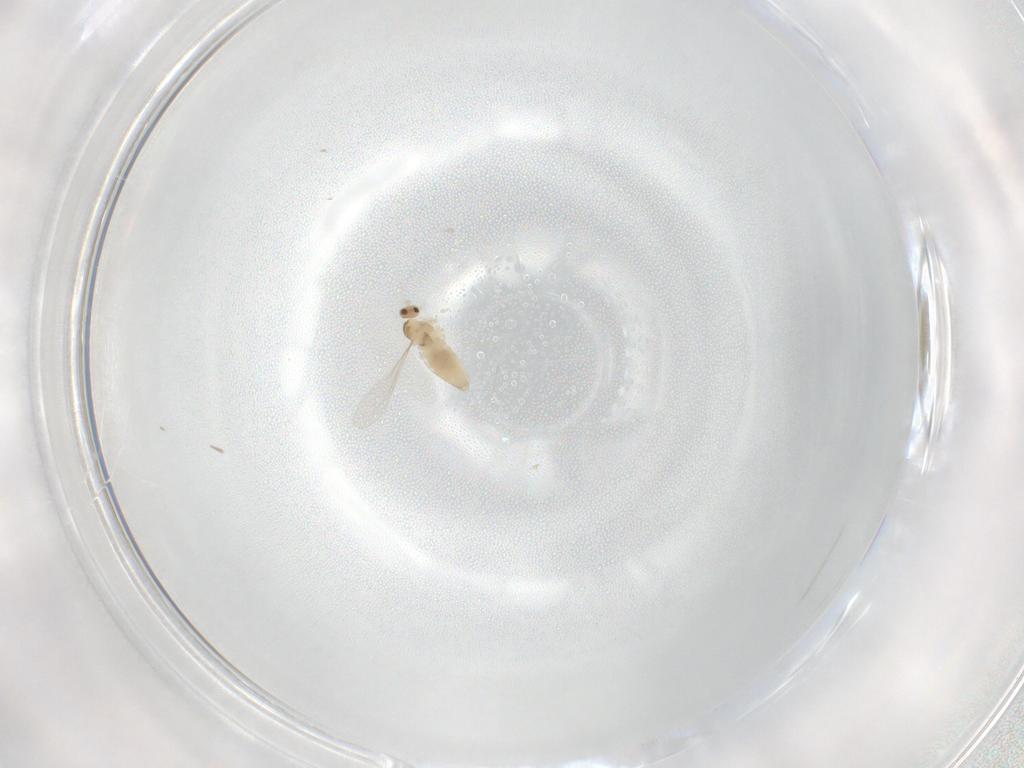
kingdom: Animalia
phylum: Arthropoda
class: Insecta
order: Diptera
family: Cecidomyiidae
